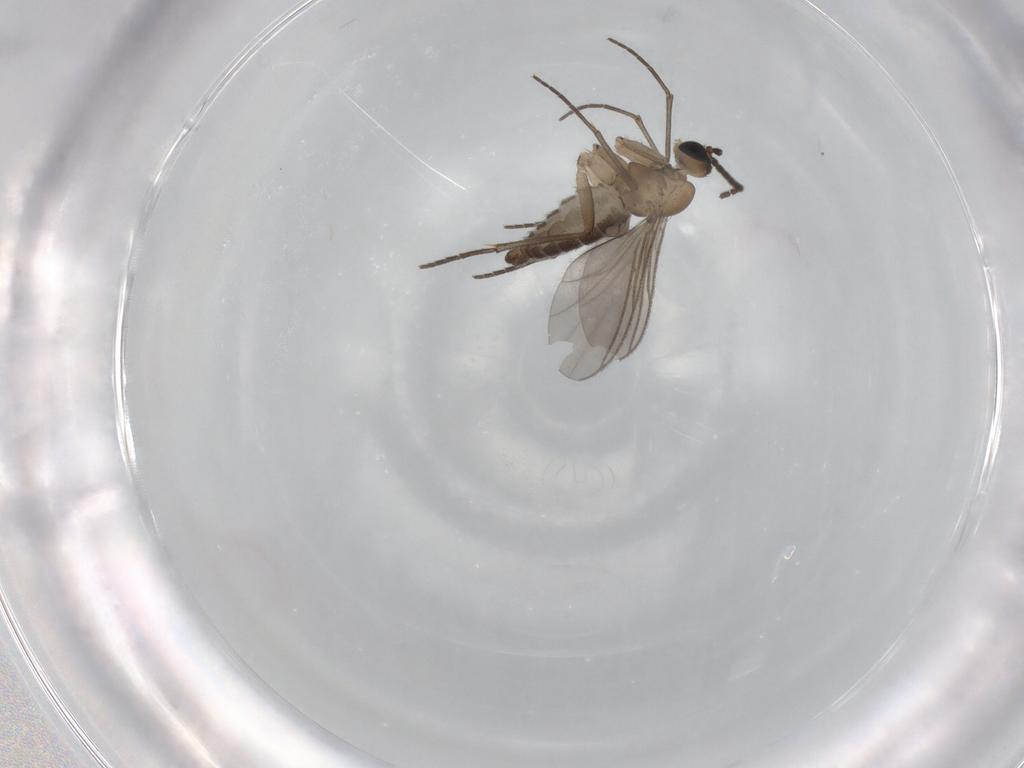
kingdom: Animalia
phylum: Arthropoda
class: Insecta
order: Diptera
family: Sciaridae
